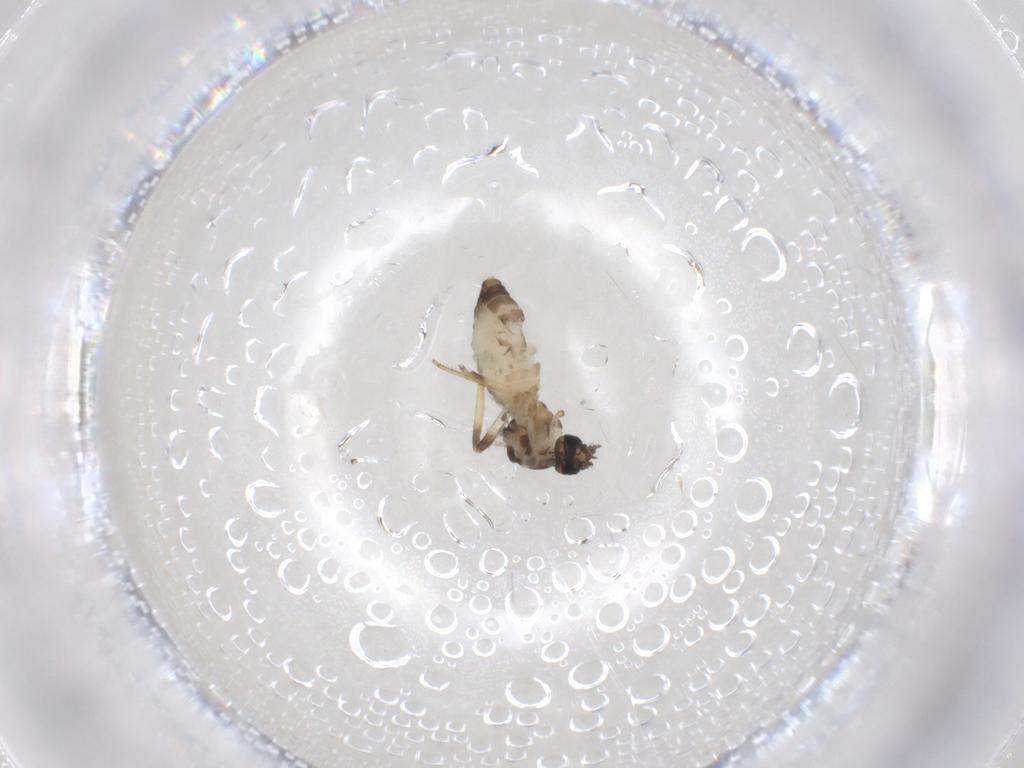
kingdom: Animalia
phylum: Arthropoda
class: Insecta
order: Diptera
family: Ceratopogonidae
